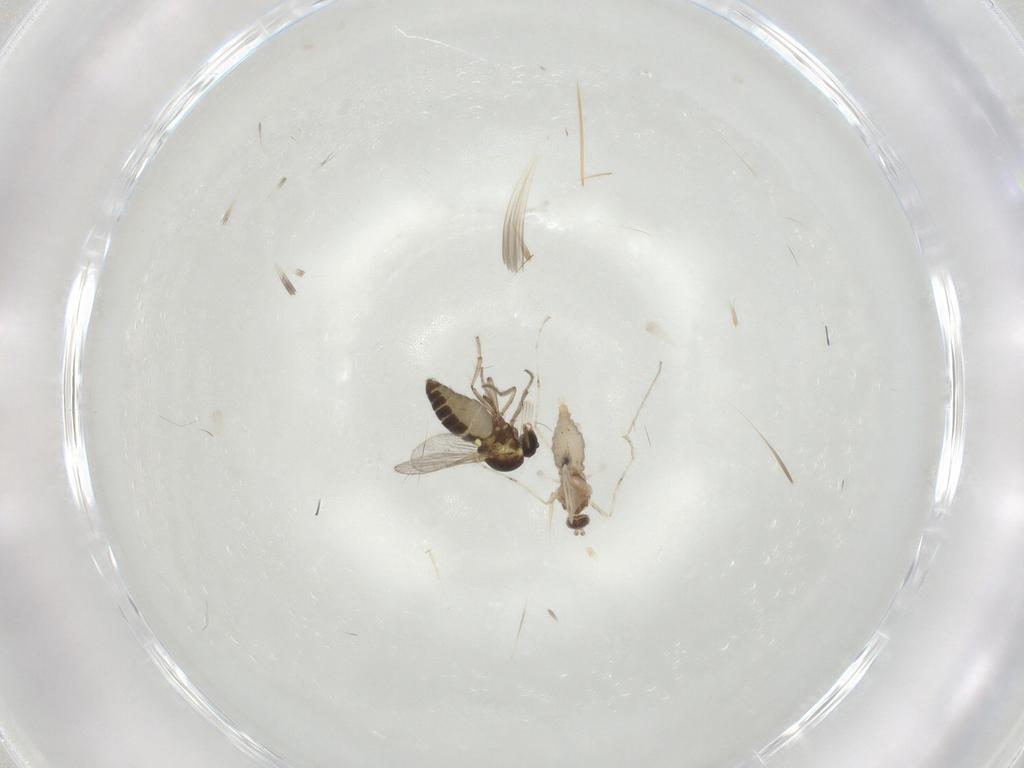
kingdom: Animalia
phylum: Arthropoda
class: Insecta
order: Diptera
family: Ceratopogonidae
